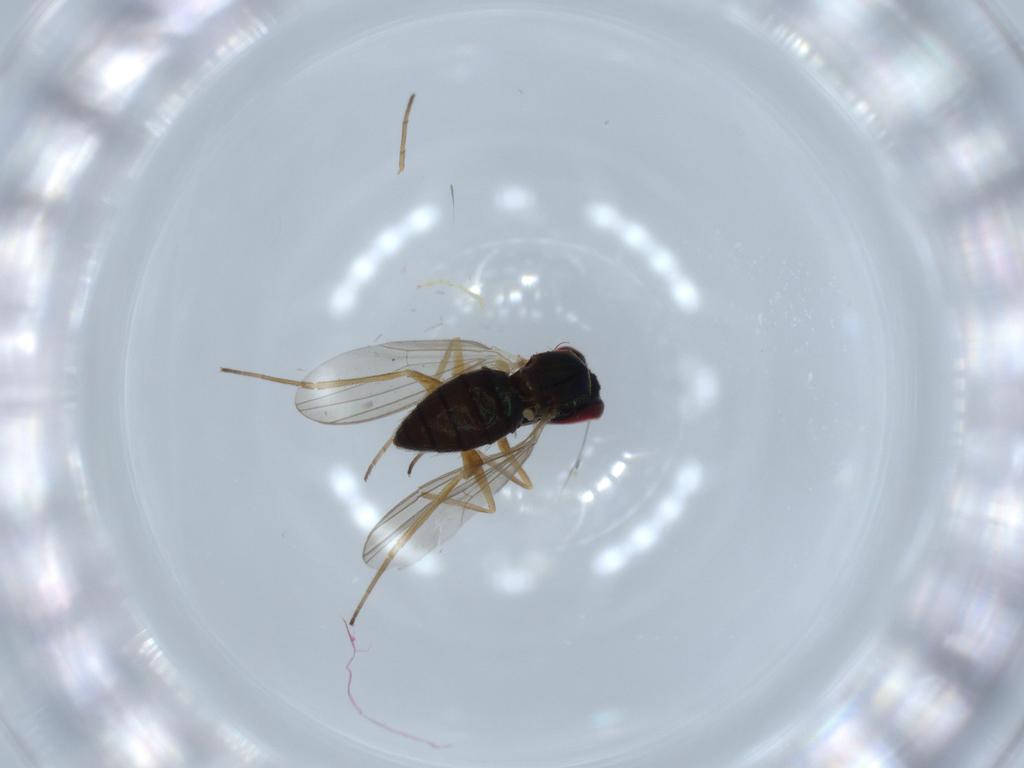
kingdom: Animalia
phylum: Arthropoda
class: Insecta
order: Diptera
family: Dolichopodidae
